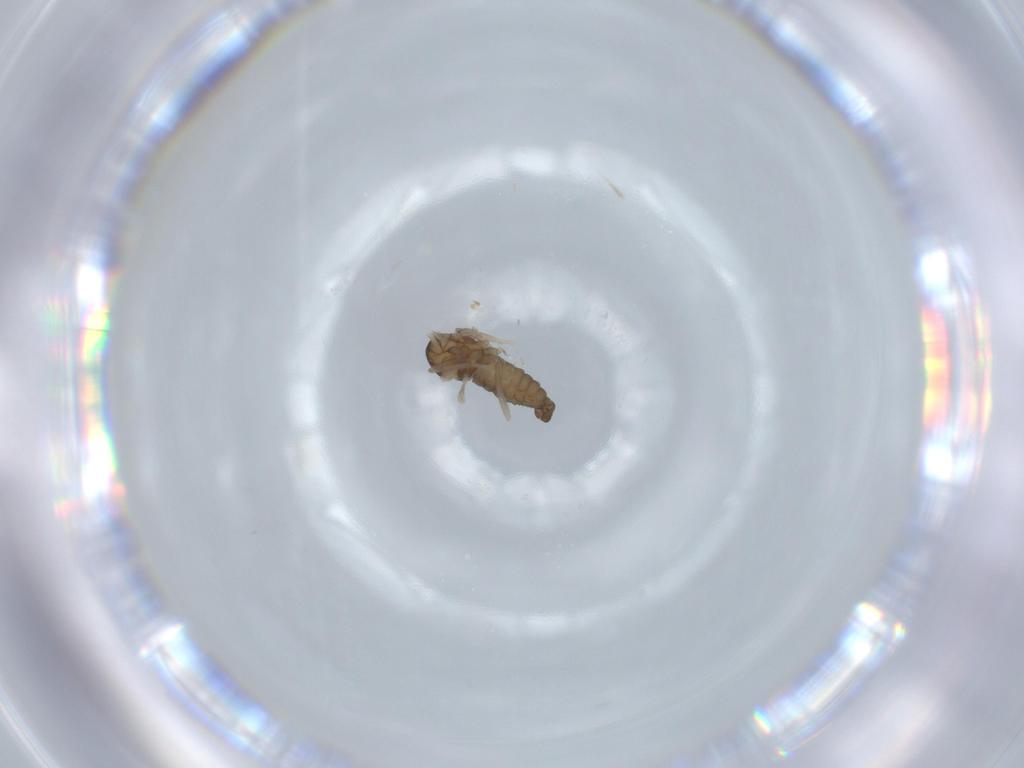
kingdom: Animalia
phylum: Arthropoda
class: Insecta
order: Diptera
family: Cecidomyiidae
